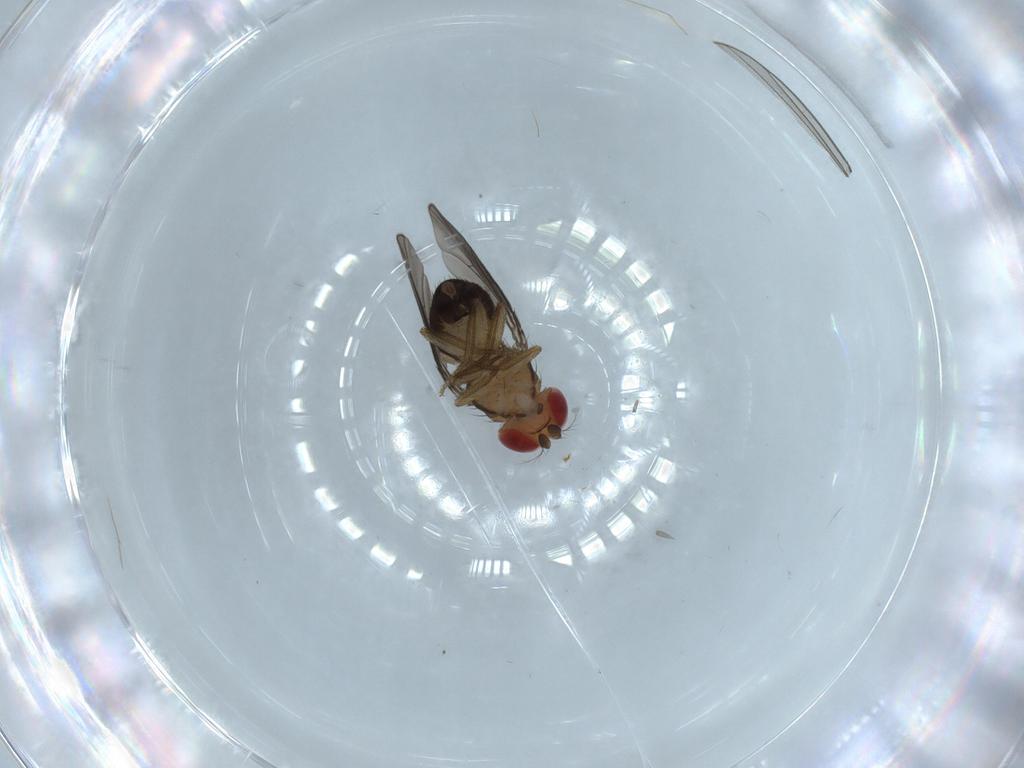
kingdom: Animalia
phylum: Arthropoda
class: Insecta
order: Diptera
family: Drosophilidae
